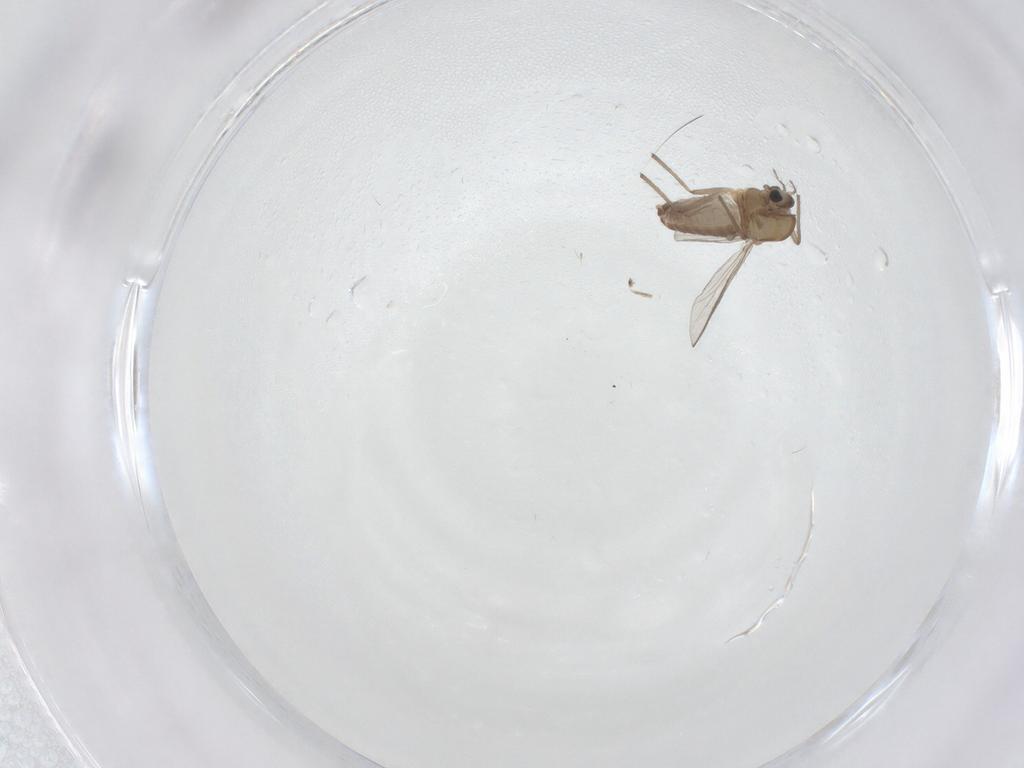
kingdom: Animalia
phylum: Arthropoda
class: Insecta
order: Diptera
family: Chironomidae
